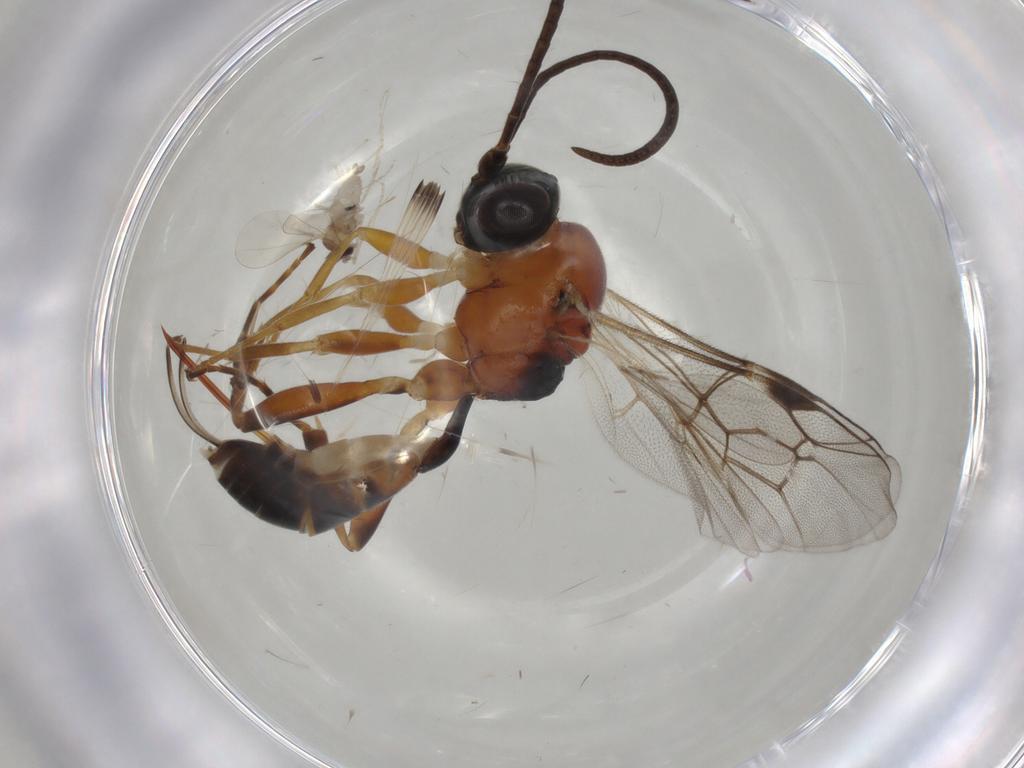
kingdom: Animalia
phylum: Arthropoda
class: Insecta
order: Diptera
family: Cecidomyiidae
